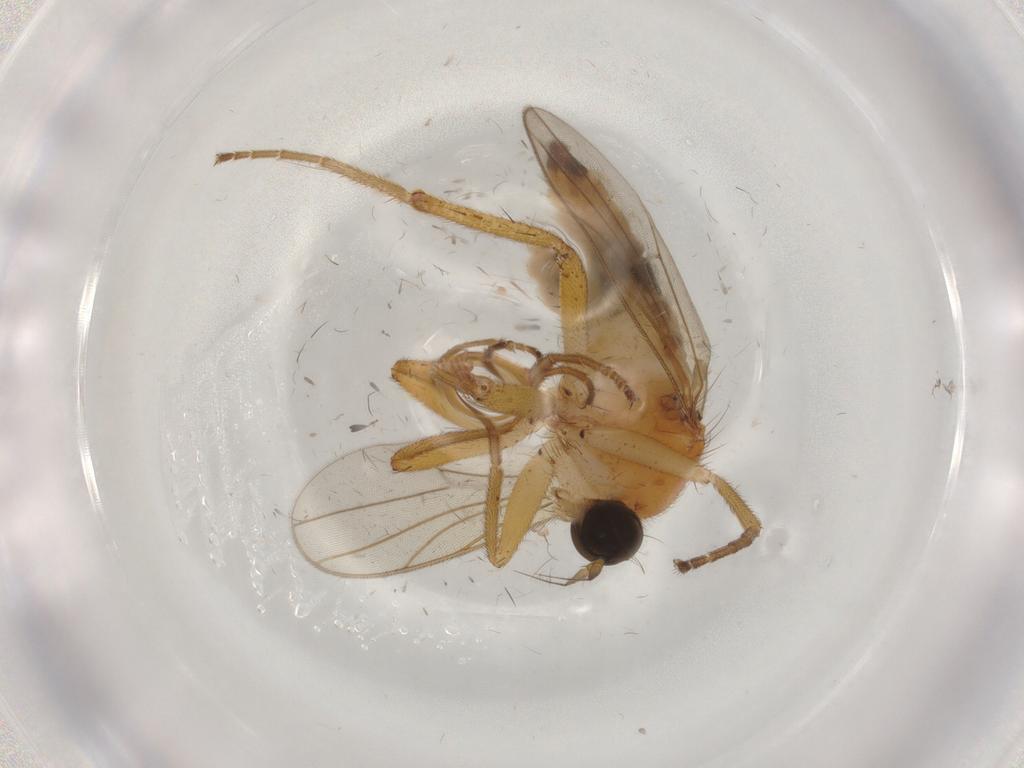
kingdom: Animalia
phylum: Arthropoda
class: Insecta
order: Diptera
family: Hybotidae
